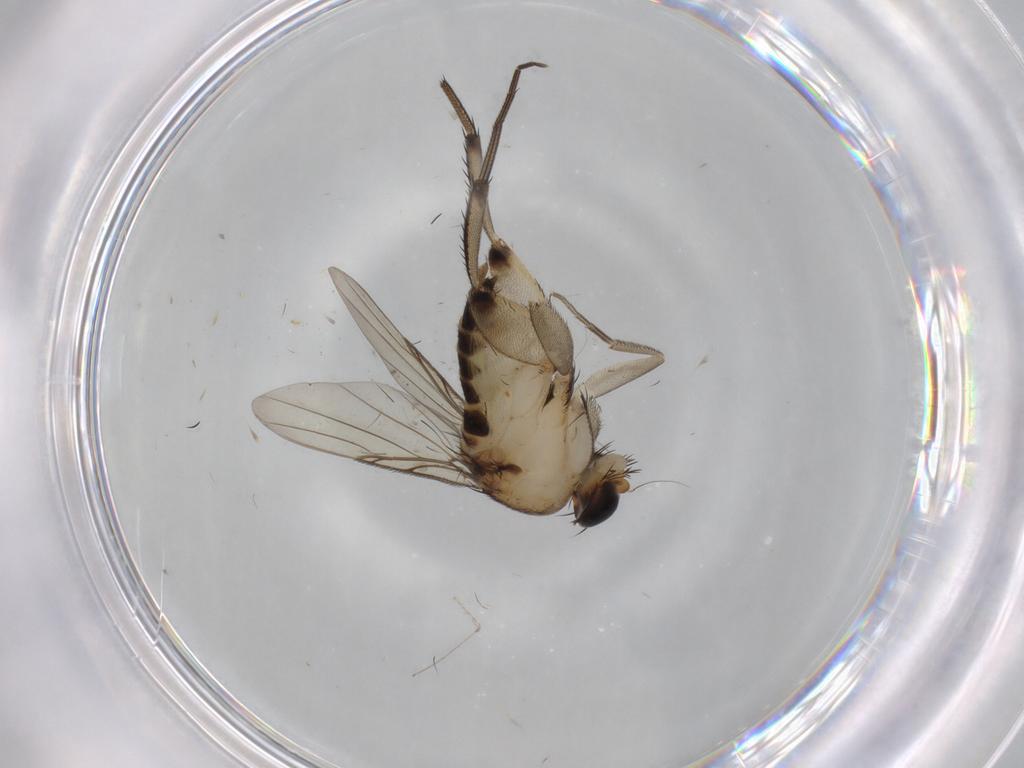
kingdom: Animalia
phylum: Arthropoda
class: Insecta
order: Diptera
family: Phoridae
